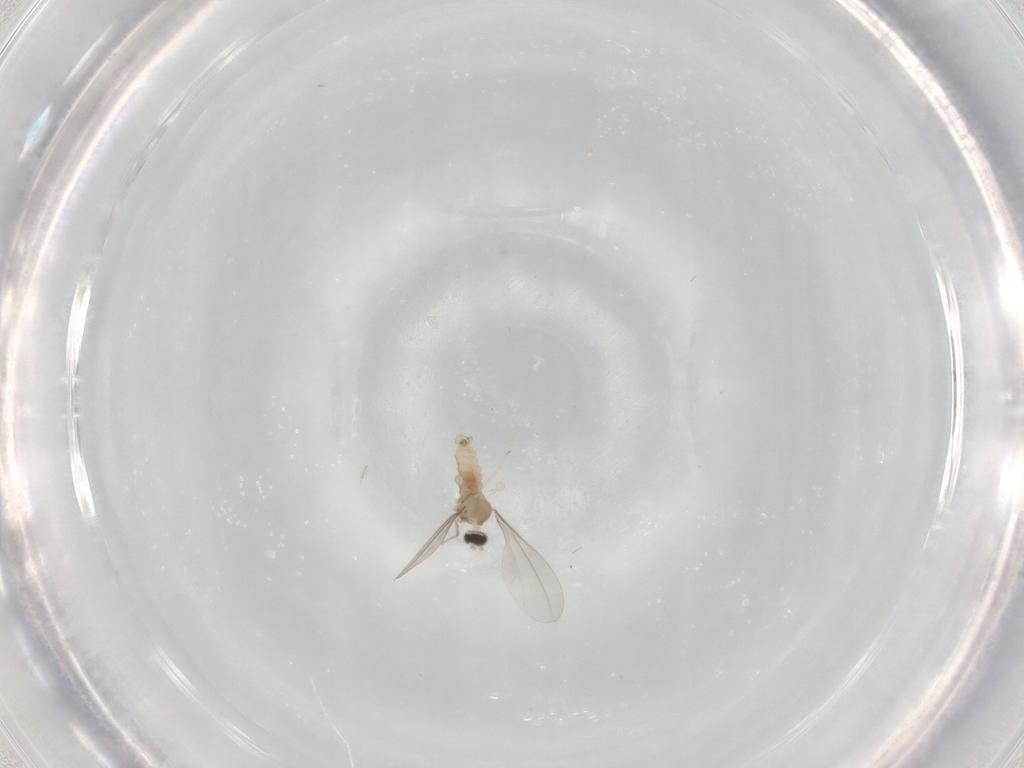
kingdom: Animalia
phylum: Arthropoda
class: Insecta
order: Diptera
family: Cecidomyiidae
